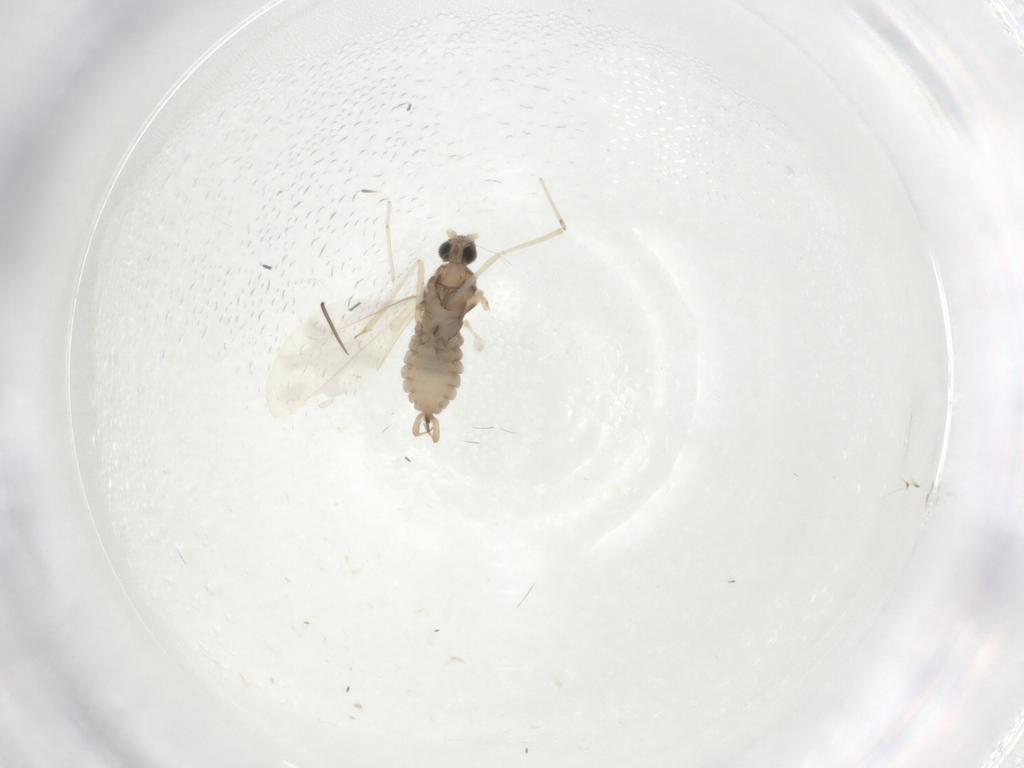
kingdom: Animalia
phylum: Arthropoda
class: Insecta
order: Diptera
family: Cecidomyiidae
